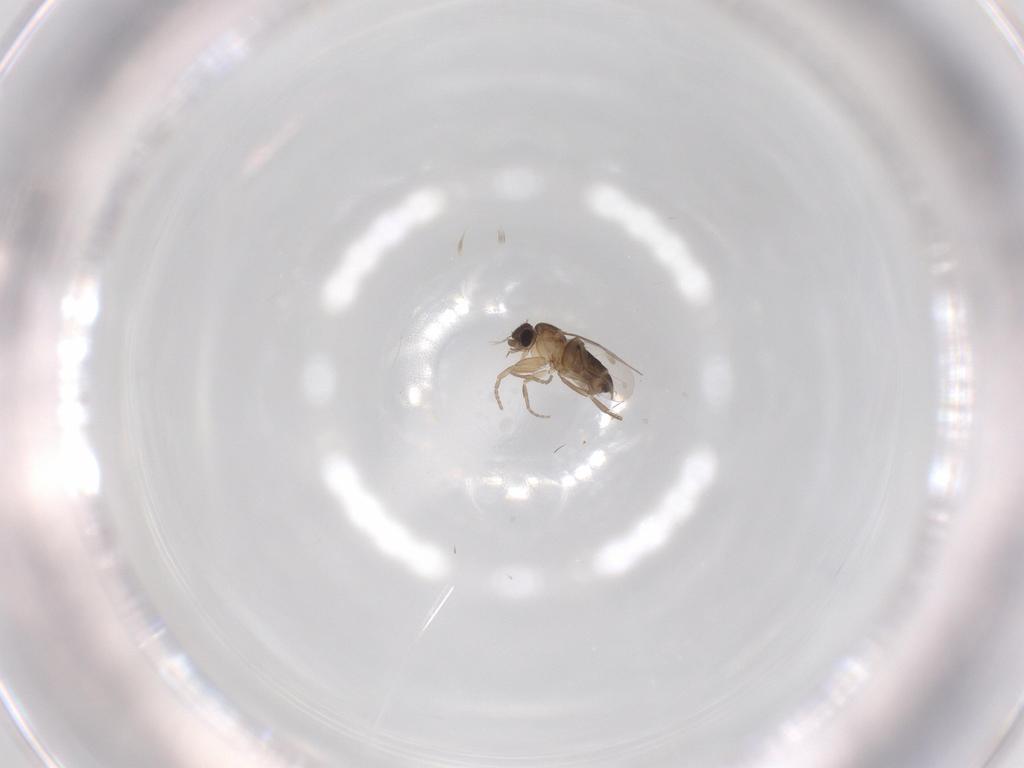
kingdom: Animalia
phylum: Arthropoda
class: Insecta
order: Diptera
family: Phoridae
